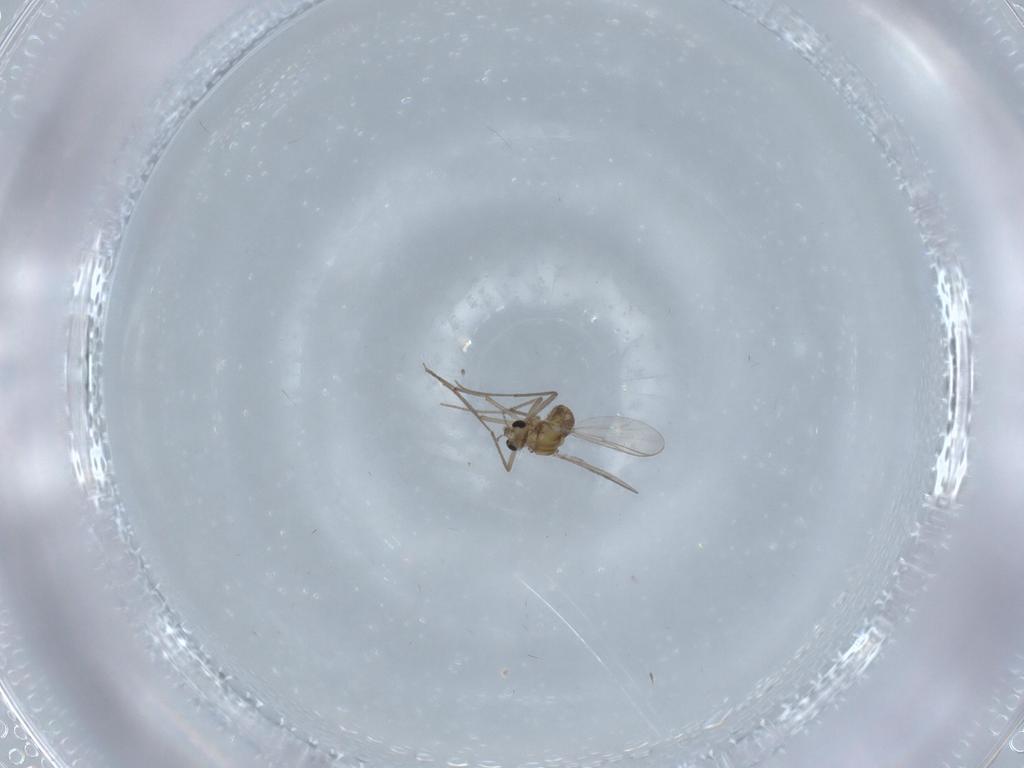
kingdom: Animalia
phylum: Arthropoda
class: Insecta
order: Diptera
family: Chironomidae
